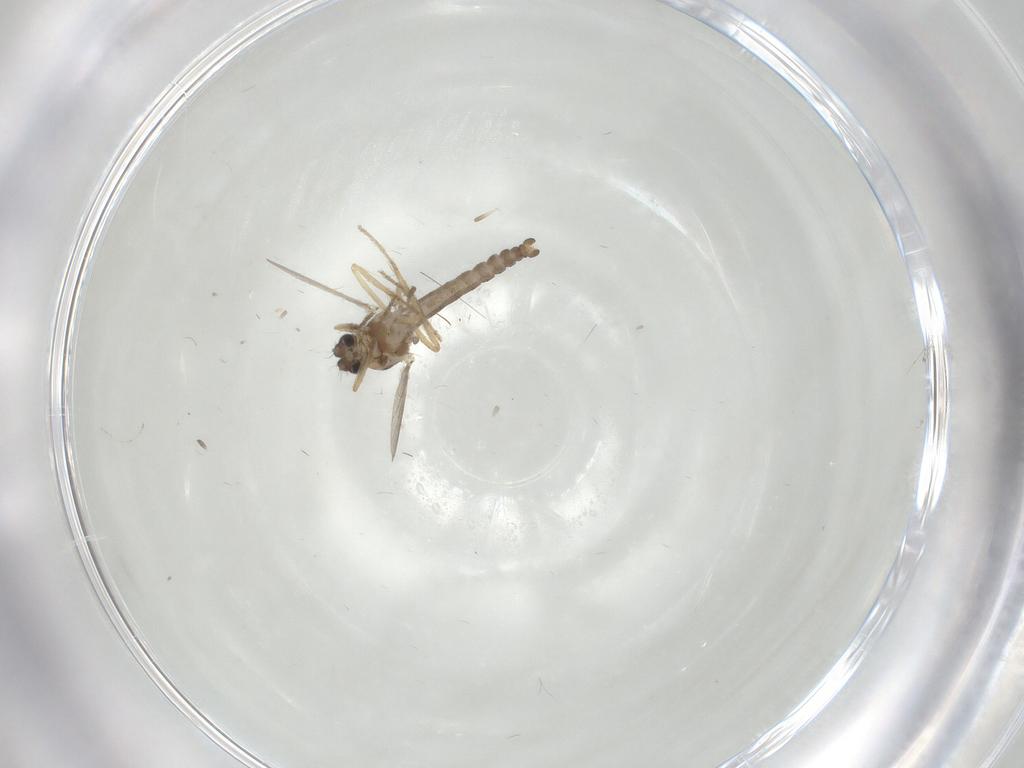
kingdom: Animalia
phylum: Arthropoda
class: Insecta
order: Diptera
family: Ceratopogonidae
